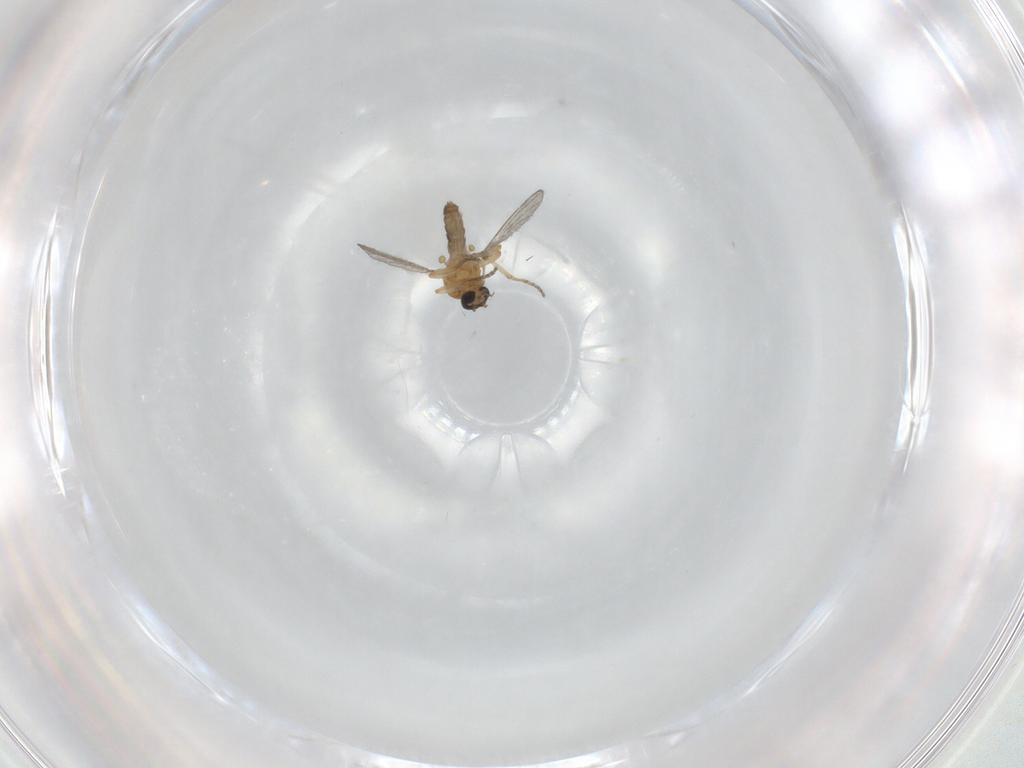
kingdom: Animalia
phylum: Arthropoda
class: Insecta
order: Diptera
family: Ceratopogonidae
